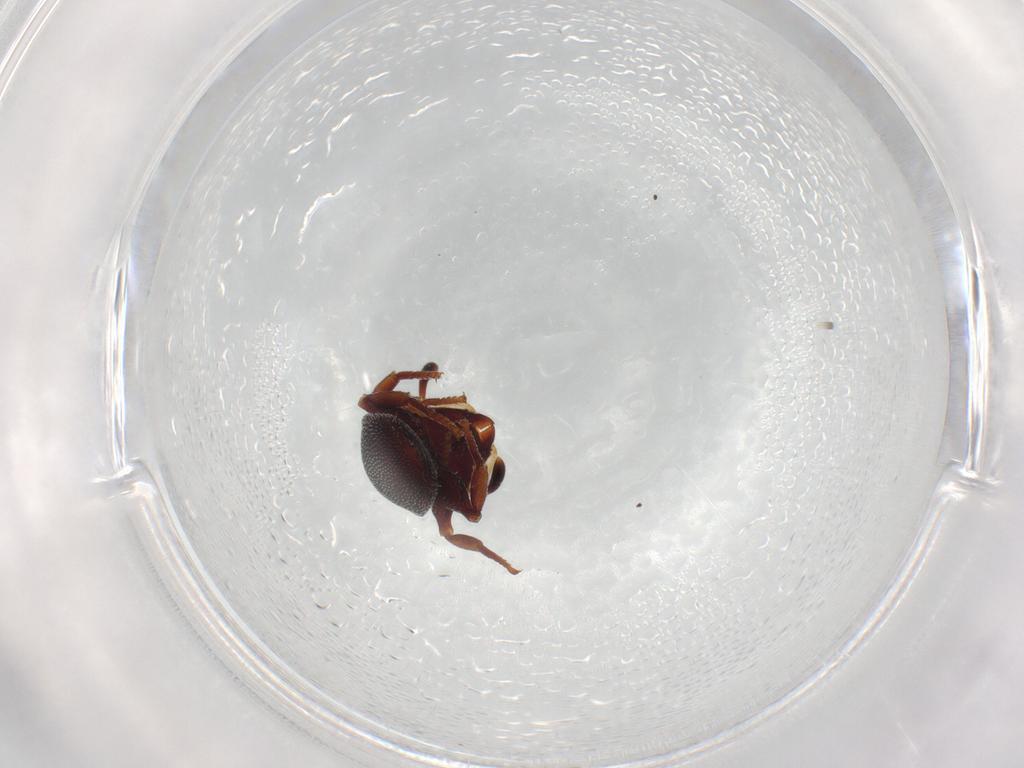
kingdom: Animalia
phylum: Arthropoda
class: Insecta
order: Hymenoptera
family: Formicidae
